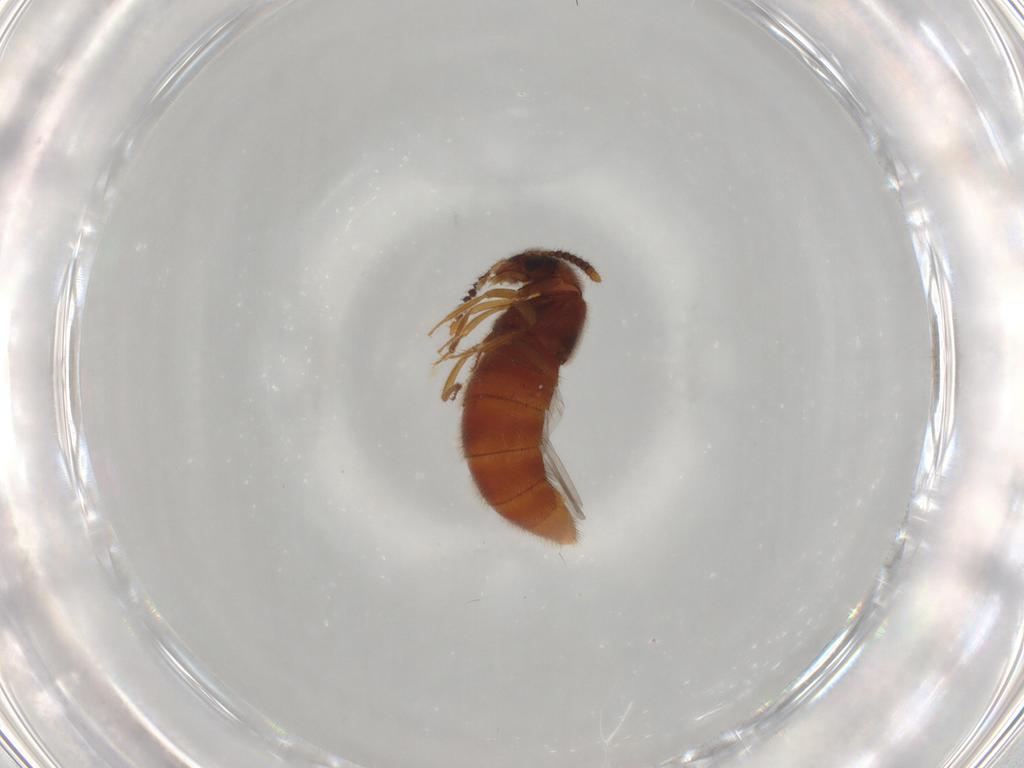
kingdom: Animalia
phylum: Arthropoda
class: Insecta
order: Coleoptera
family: Staphylinidae
